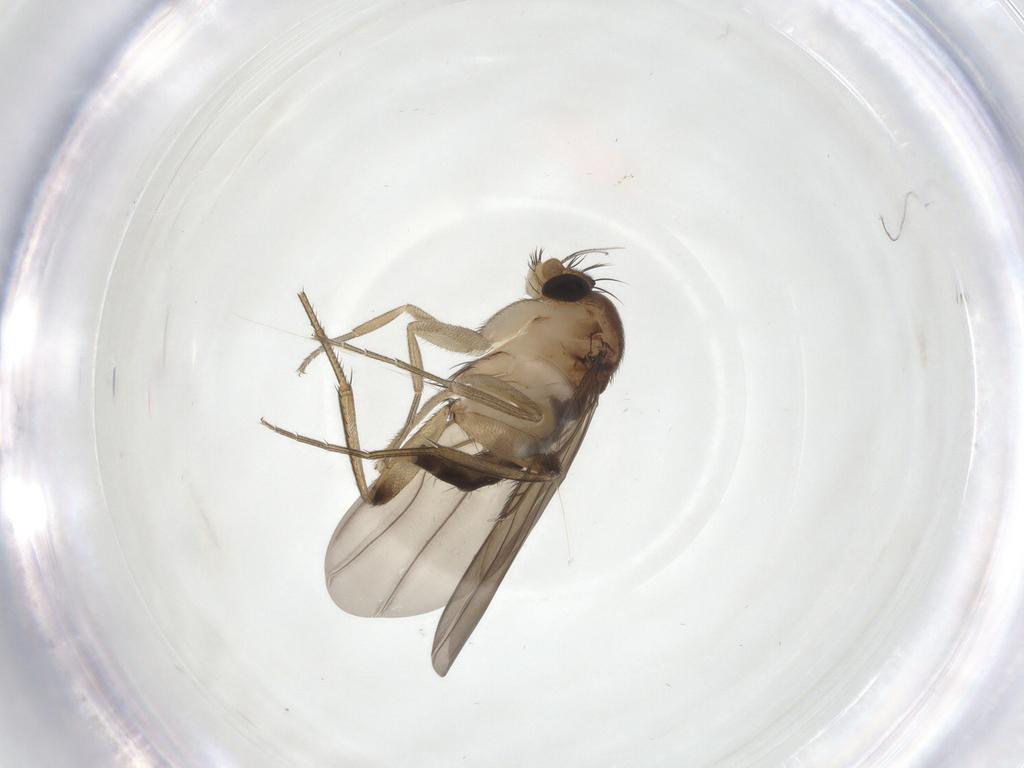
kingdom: Animalia
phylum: Arthropoda
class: Insecta
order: Diptera
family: Phoridae
